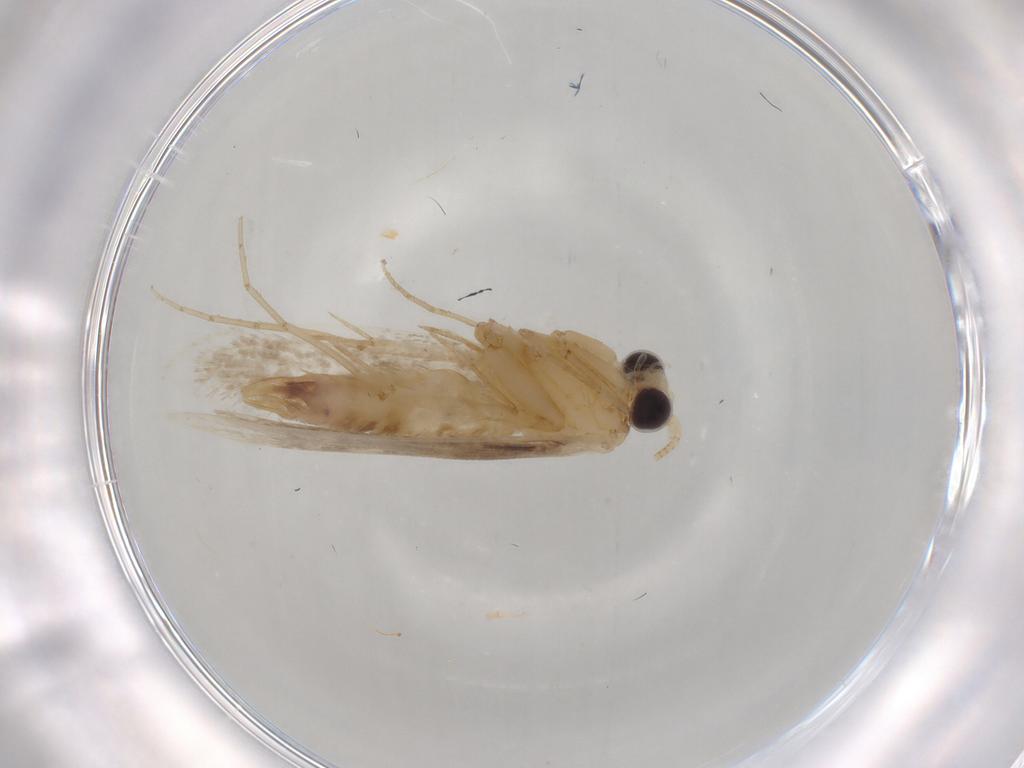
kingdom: Animalia
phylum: Arthropoda
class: Insecta
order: Lepidoptera
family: Tineidae
